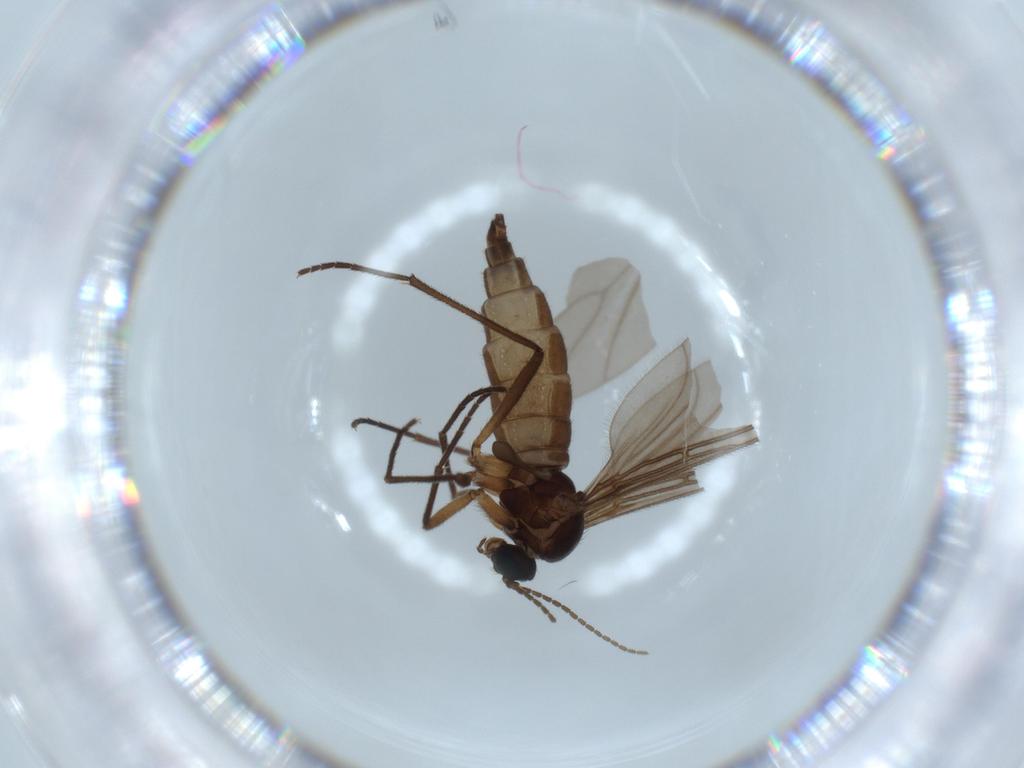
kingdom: Animalia
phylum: Arthropoda
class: Insecta
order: Diptera
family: Sciaridae
